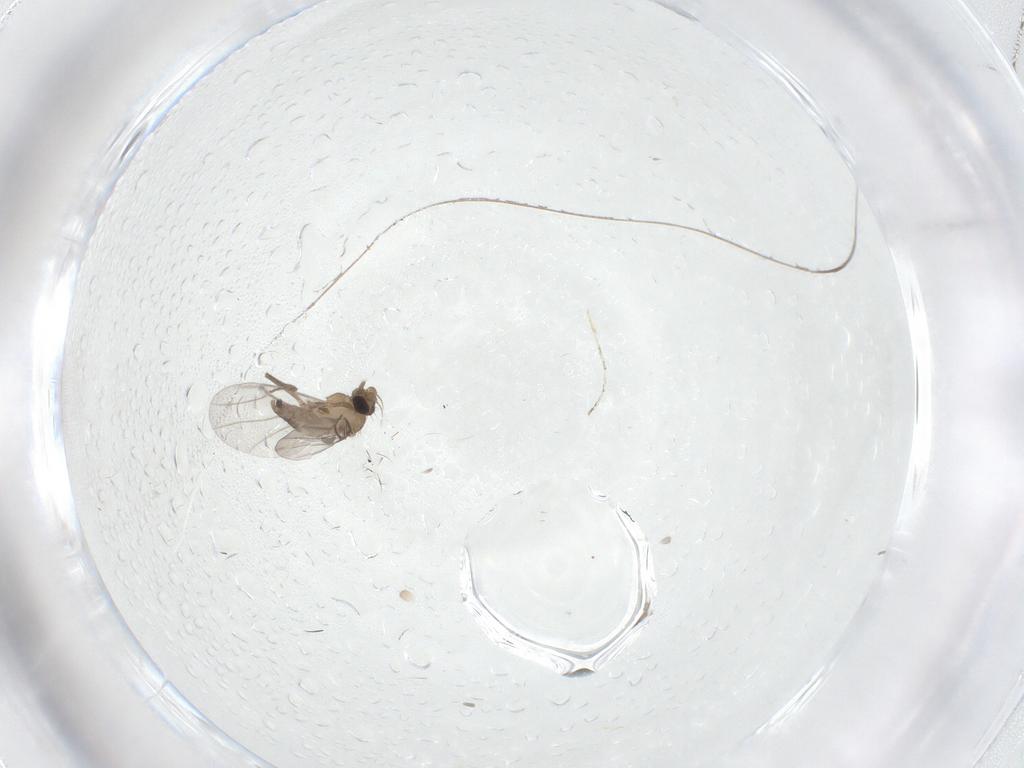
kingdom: Animalia
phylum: Arthropoda
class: Insecta
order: Diptera
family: Cecidomyiidae
